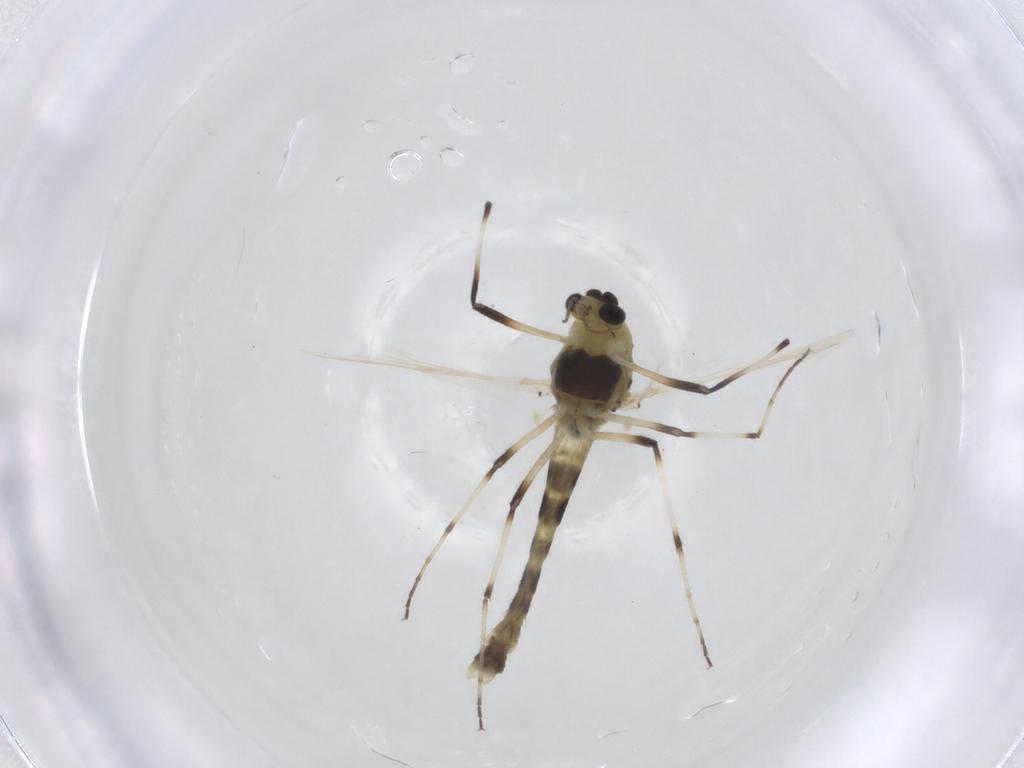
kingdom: Animalia
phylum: Arthropoda
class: Insecta
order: Diptera
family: Chironomidae
